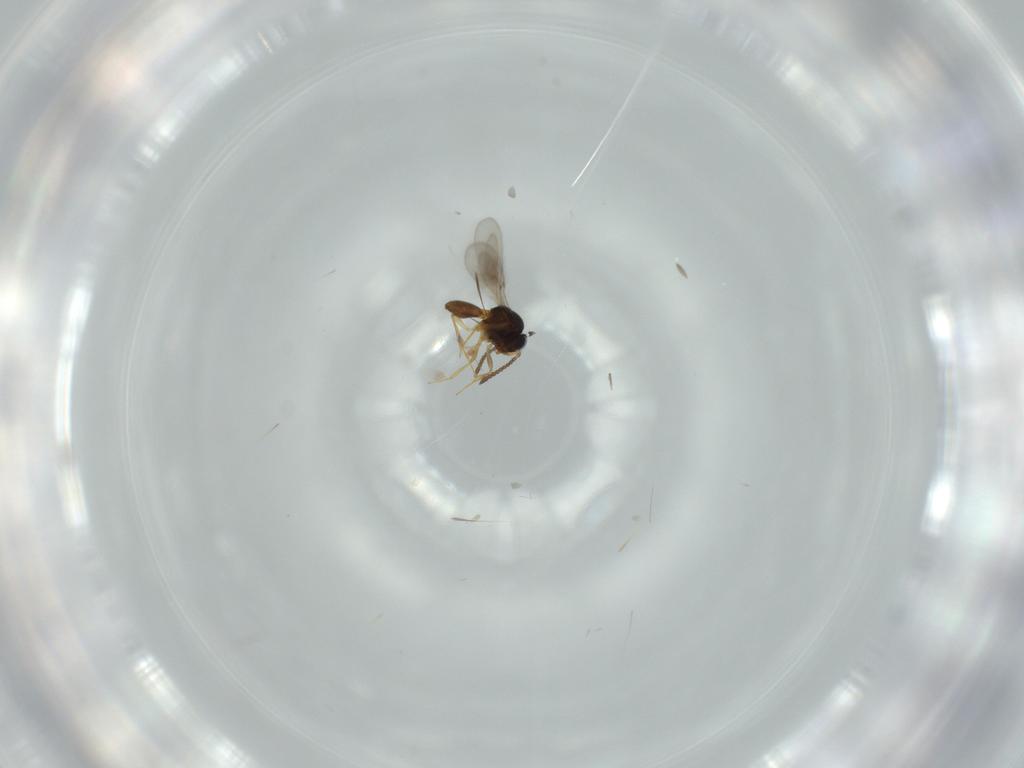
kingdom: Animalia
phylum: Arthropoda
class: Insecta
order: Hymenoptera
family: Scelionidae
